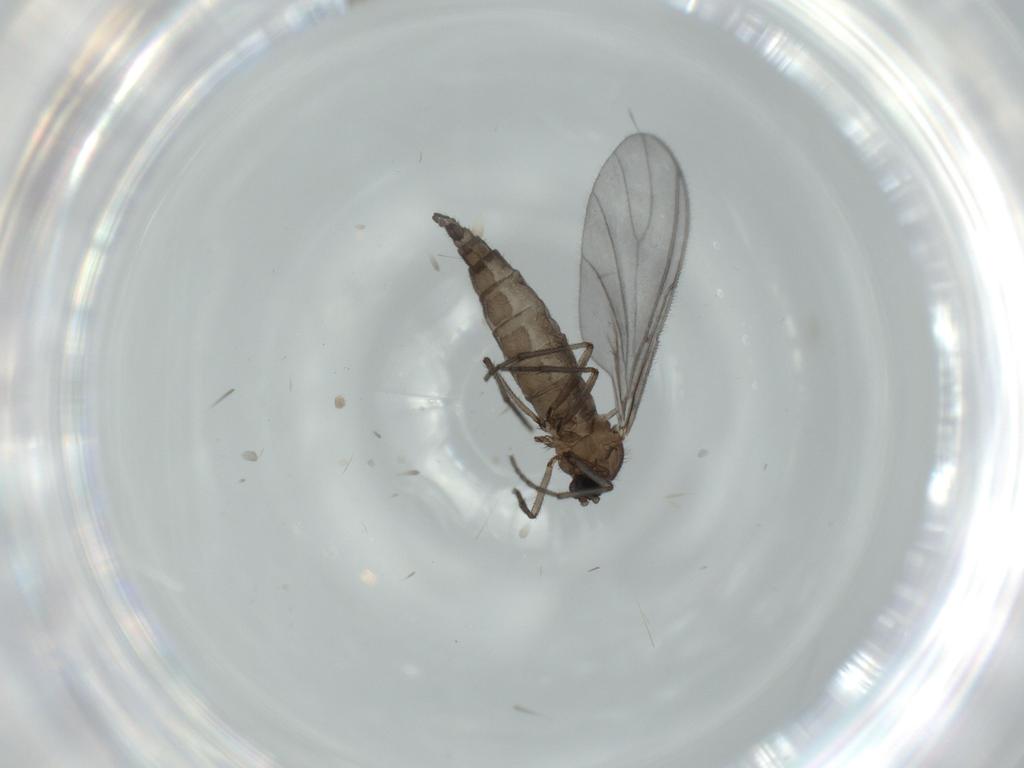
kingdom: Animalia
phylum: Arthropoda
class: Insecta
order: Diptera
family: Sciaridae
